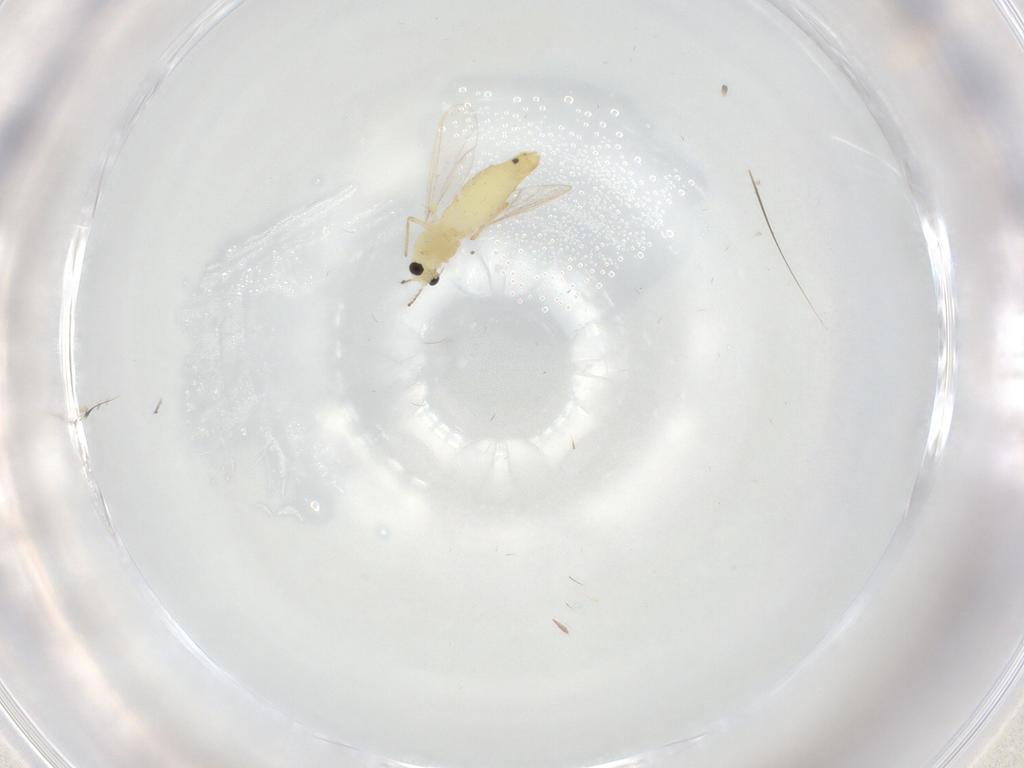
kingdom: Animalia
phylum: Arthropoda
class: Insecta
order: Diptera
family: Chironomidae
